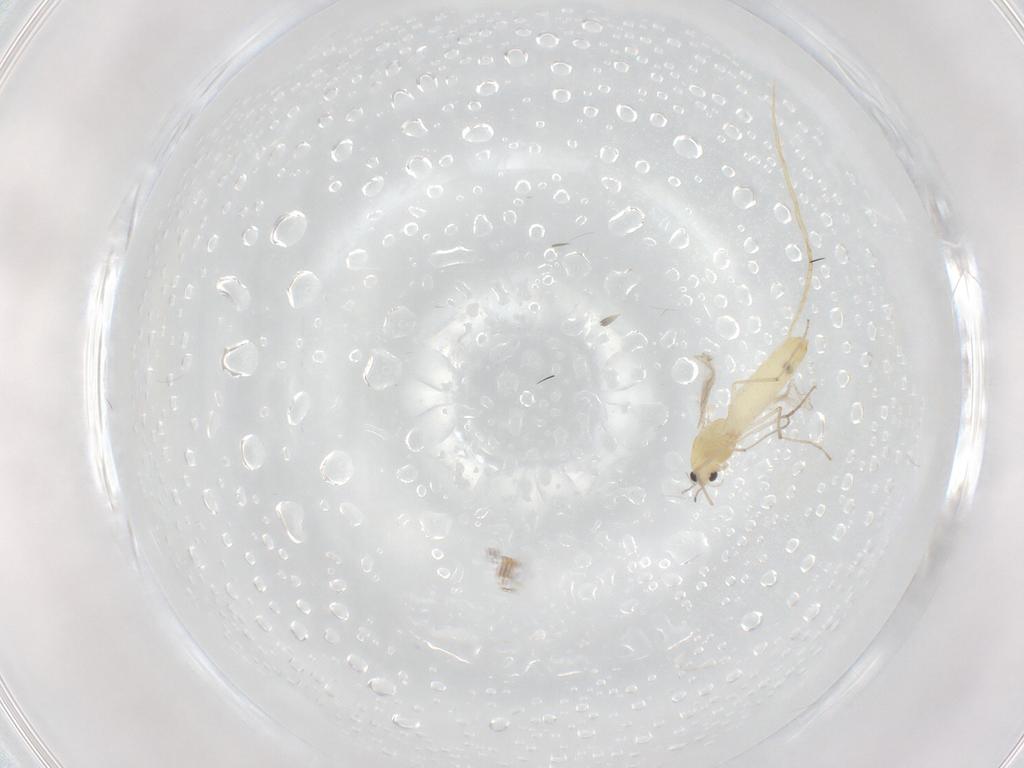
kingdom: Animalia
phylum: Arthropoda
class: Insecta
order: Diptera
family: Chironomidae
